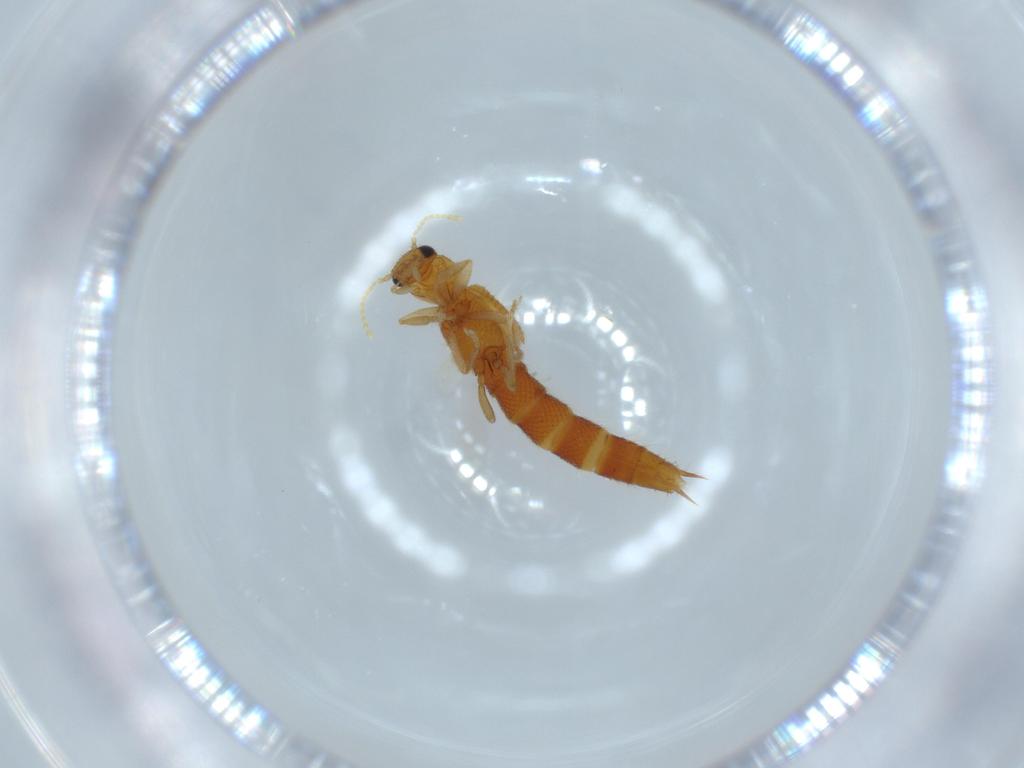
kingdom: Animalia
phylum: Arthropoda
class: Insecta
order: Coleoptera
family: Staphylinidae
